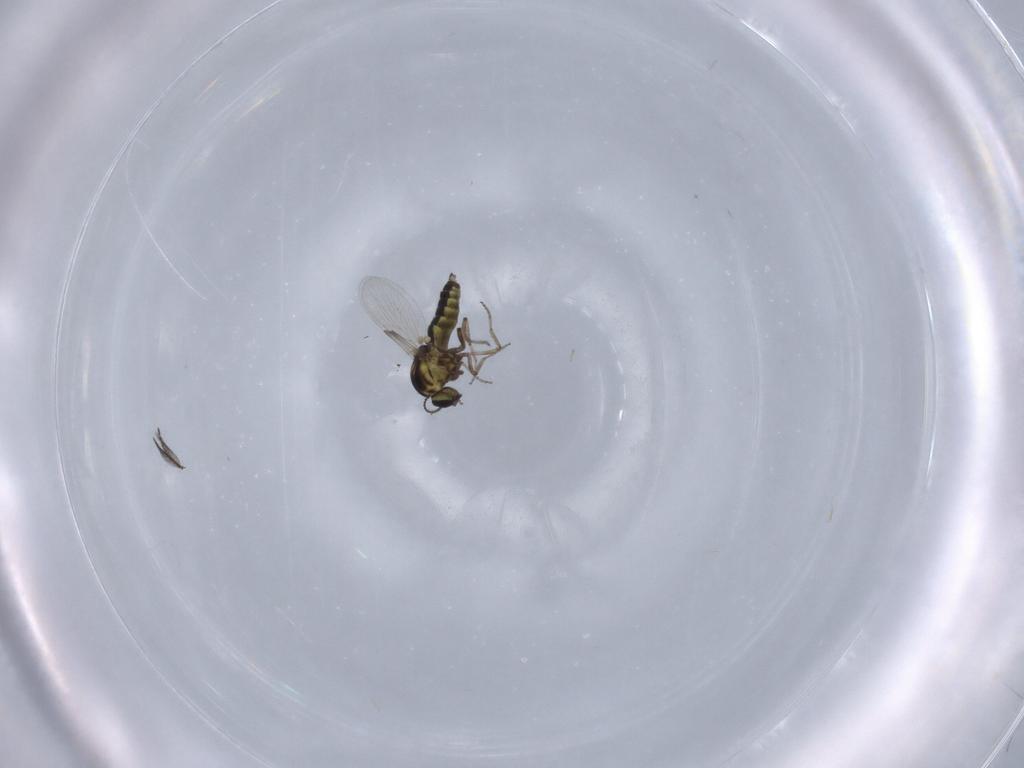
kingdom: Animalia
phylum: Arthropoda
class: Insecta
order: Diptera
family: Ceratopogonidae
